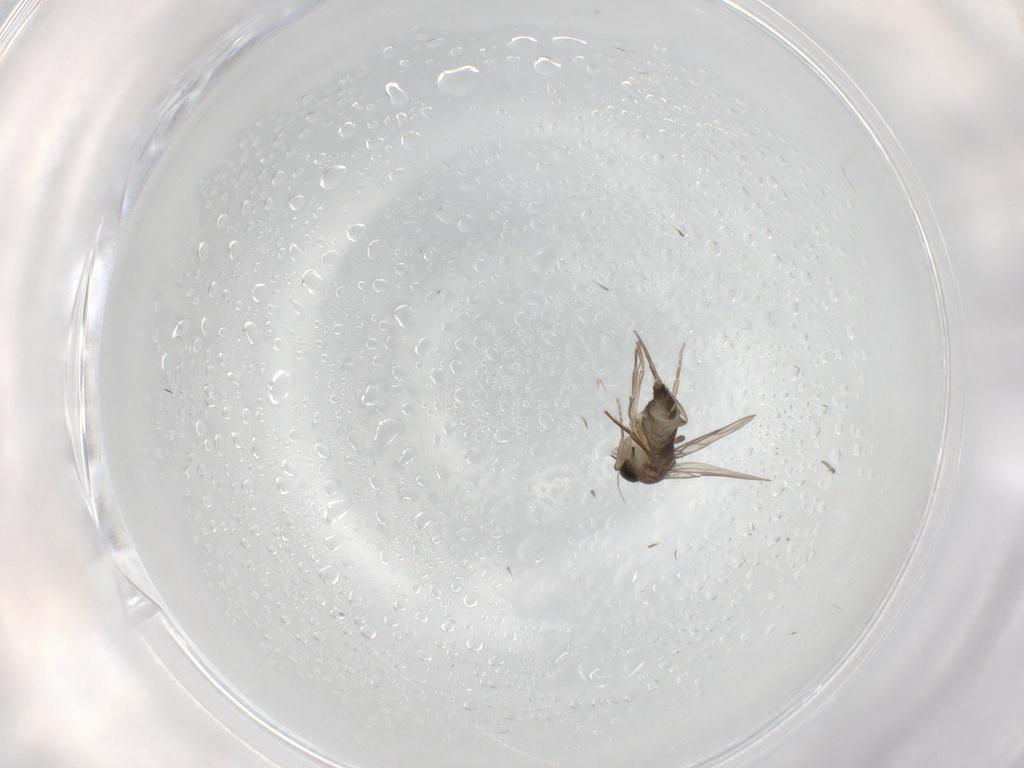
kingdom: Animalia
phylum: Arthropoda
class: Insecta
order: Diptera
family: Phoridae
